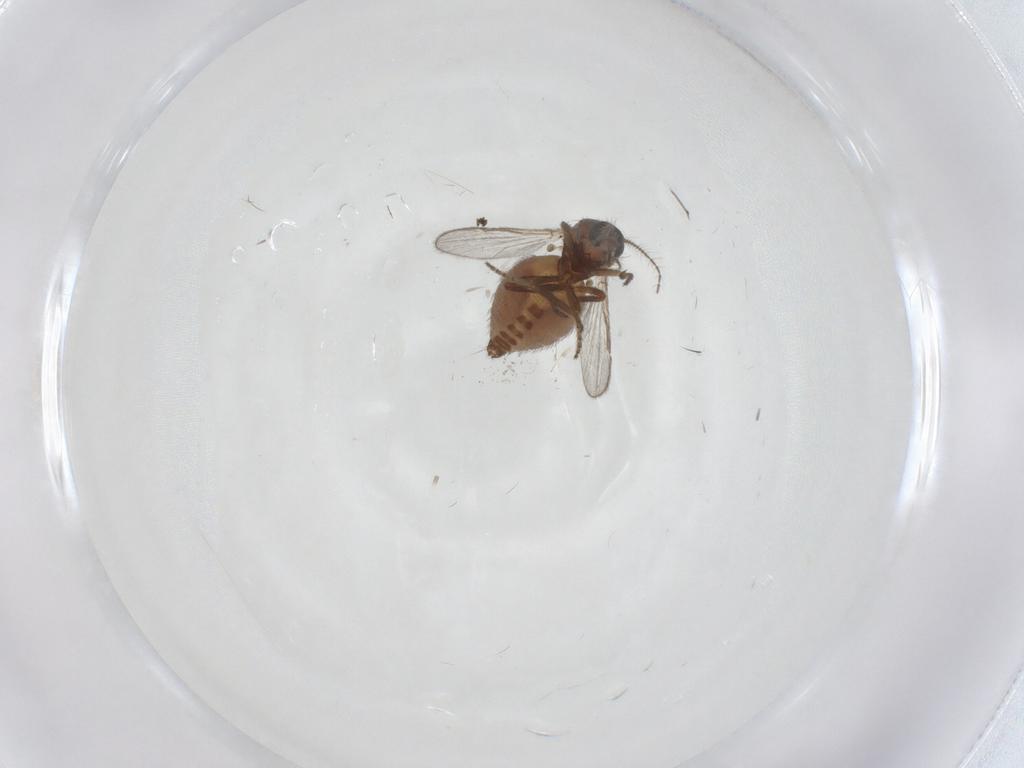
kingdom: Animalia
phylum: Arthropoda
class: Insecta
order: Diptera
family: Ceratopogonidae
